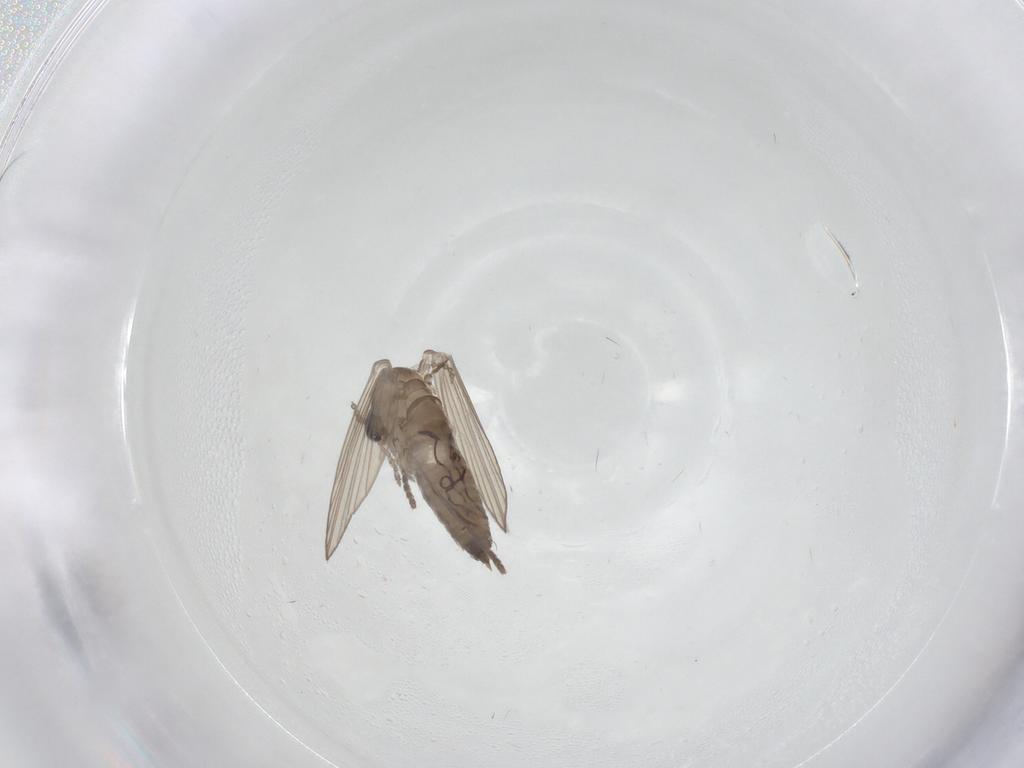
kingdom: Animalia
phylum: Arthropoda
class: Insecta
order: Diptera
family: Psychodidae
